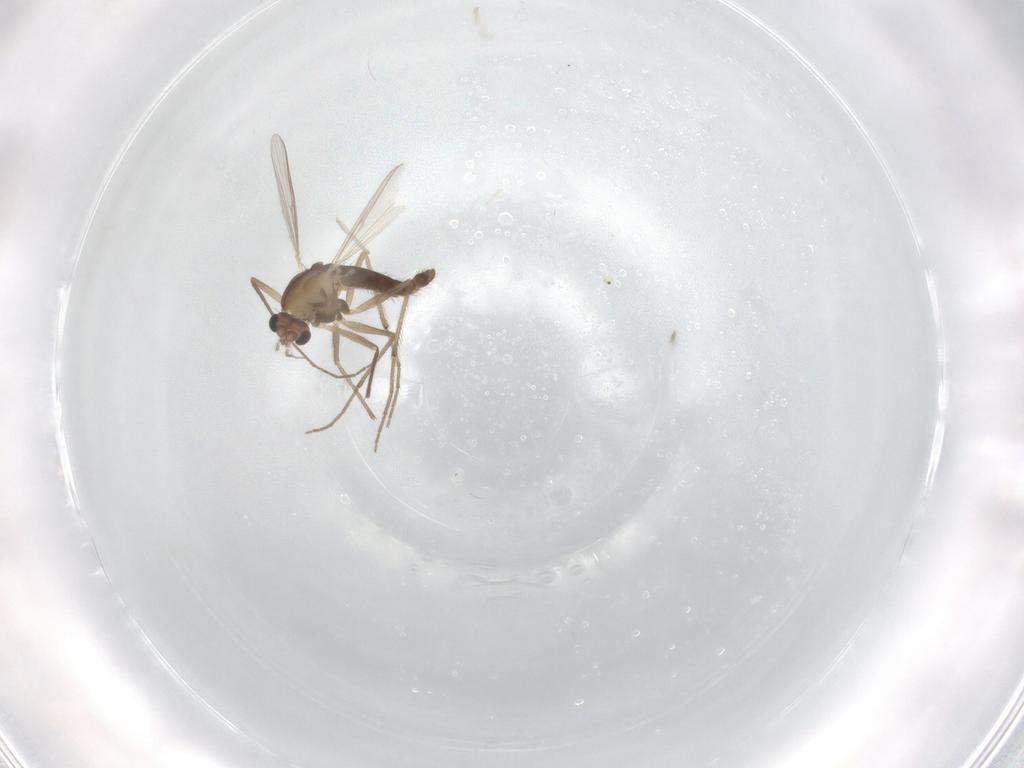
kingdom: Animalia
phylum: Arthropoda
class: Insecta
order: Diptera
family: Chironomidae
